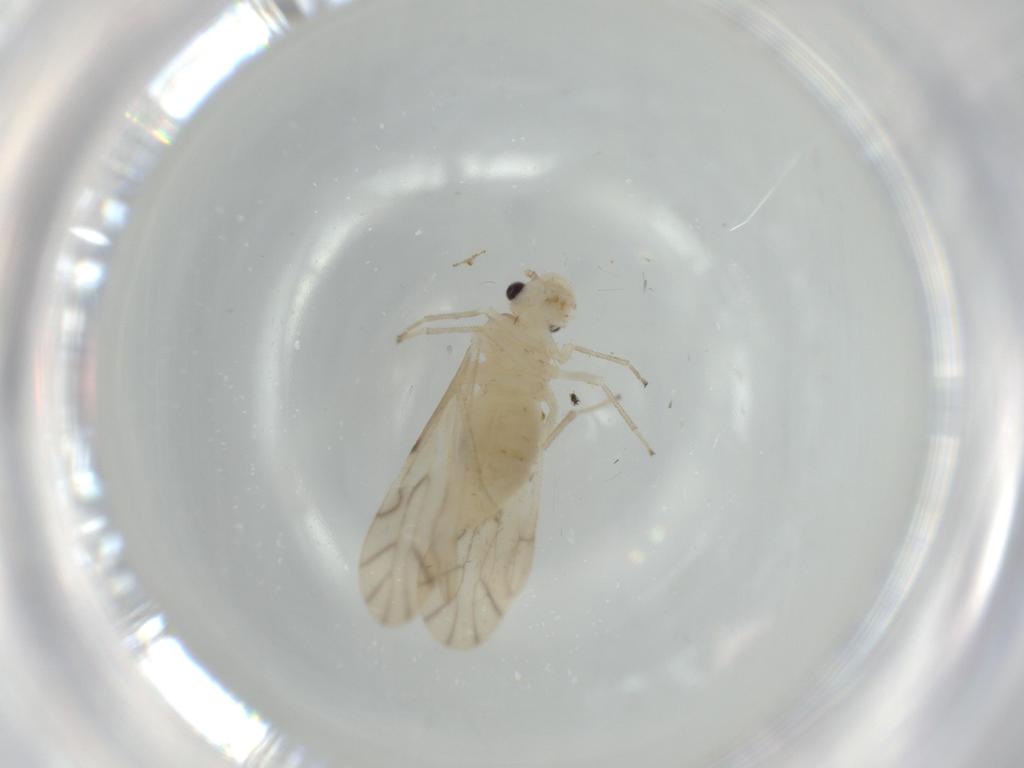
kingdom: Animalia
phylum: Arthropoda
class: Insecta
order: Psocodea
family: Caeciliusidae
